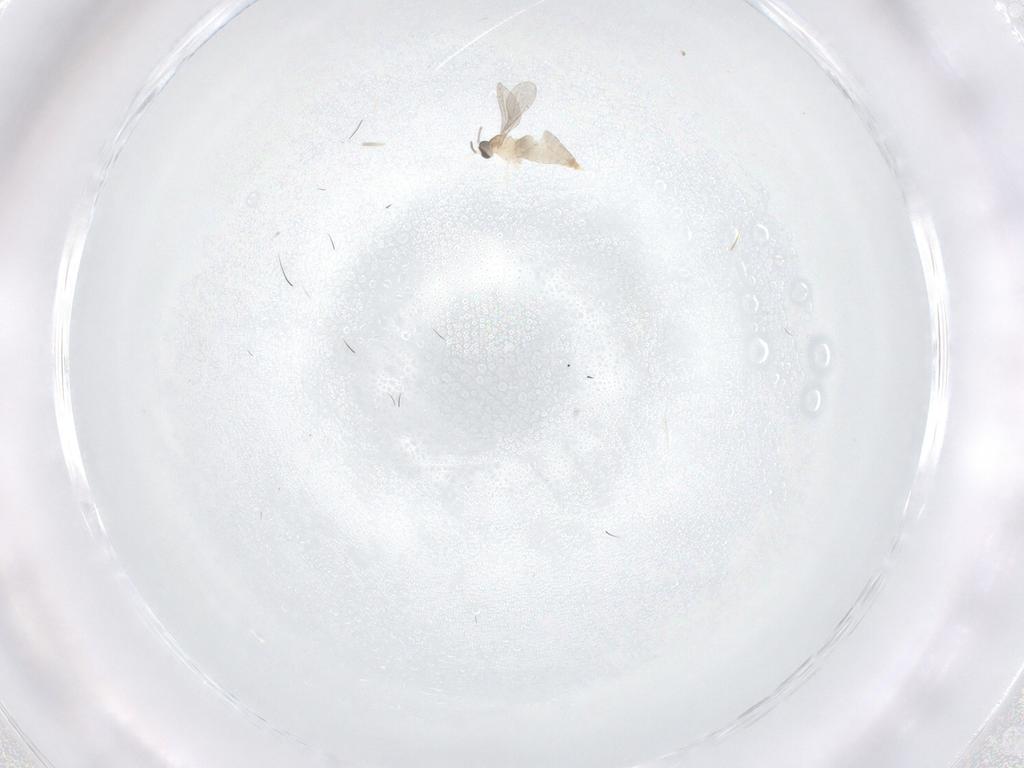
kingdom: Animalia
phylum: Arthropoda
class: Insecta
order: Diptera
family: Cecidomyiidae
